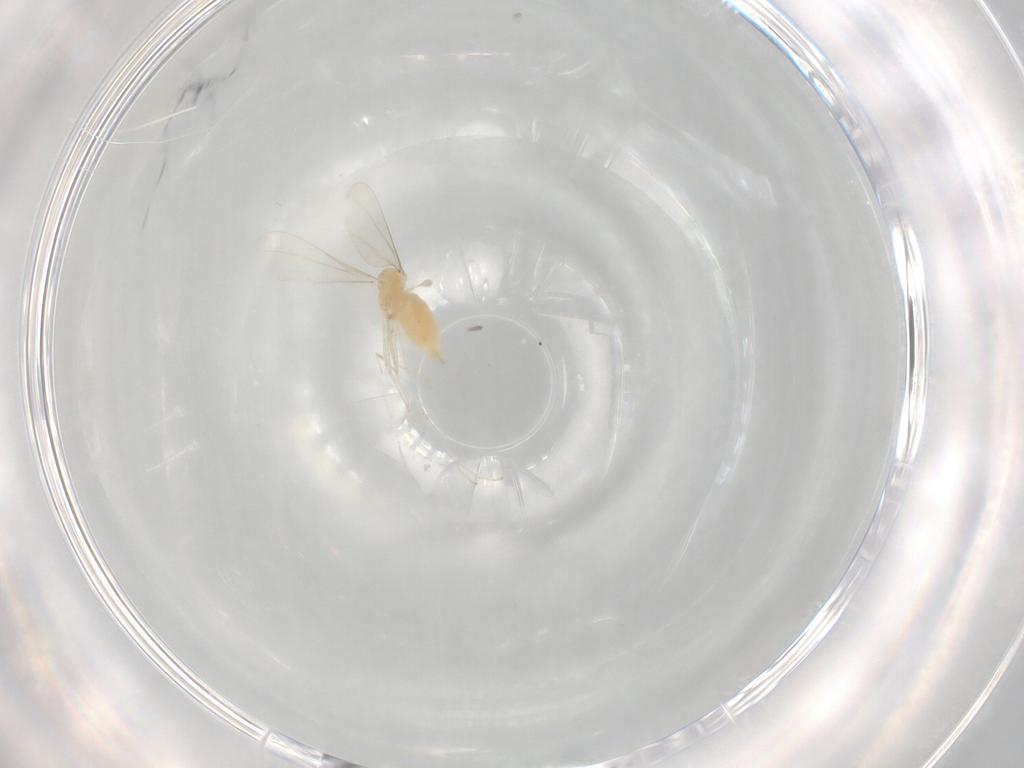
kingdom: Animalia
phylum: Arthropoda
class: Insecta
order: Diptera
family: Cecidomyiidae
